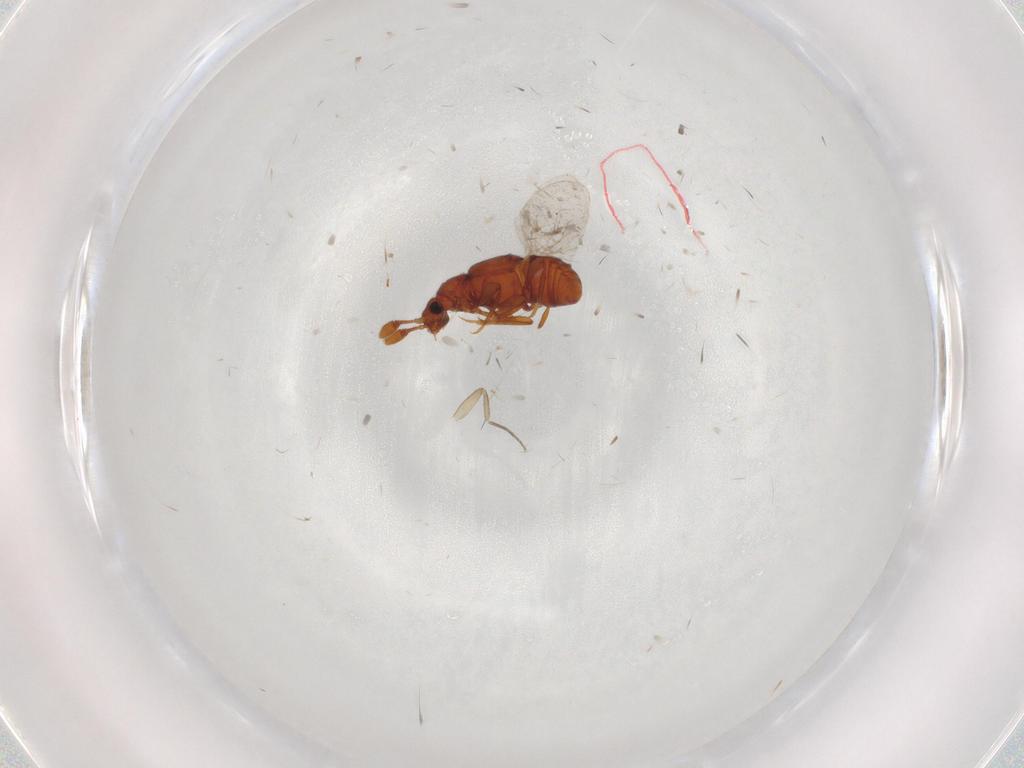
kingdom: Animalia
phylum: Arthropoda
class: Insecta
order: Coleoptera
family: Staphylinidae
